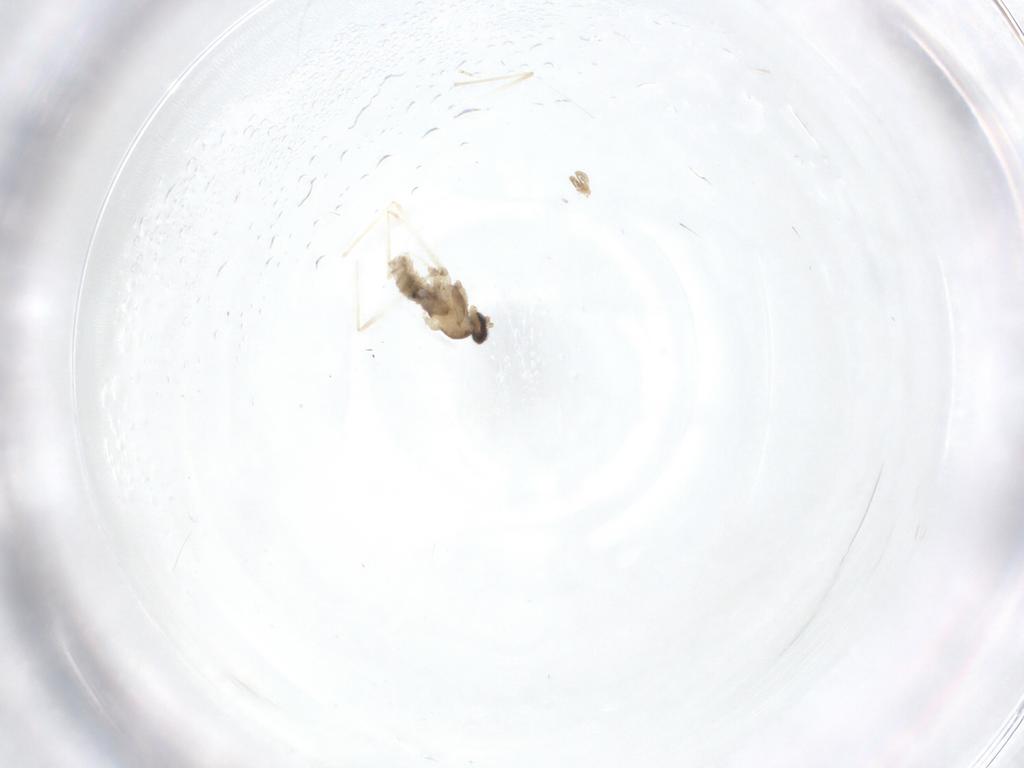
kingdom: Animalia
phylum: Arthropoda
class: Insecta
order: Diptera
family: Cecidomyiidae
